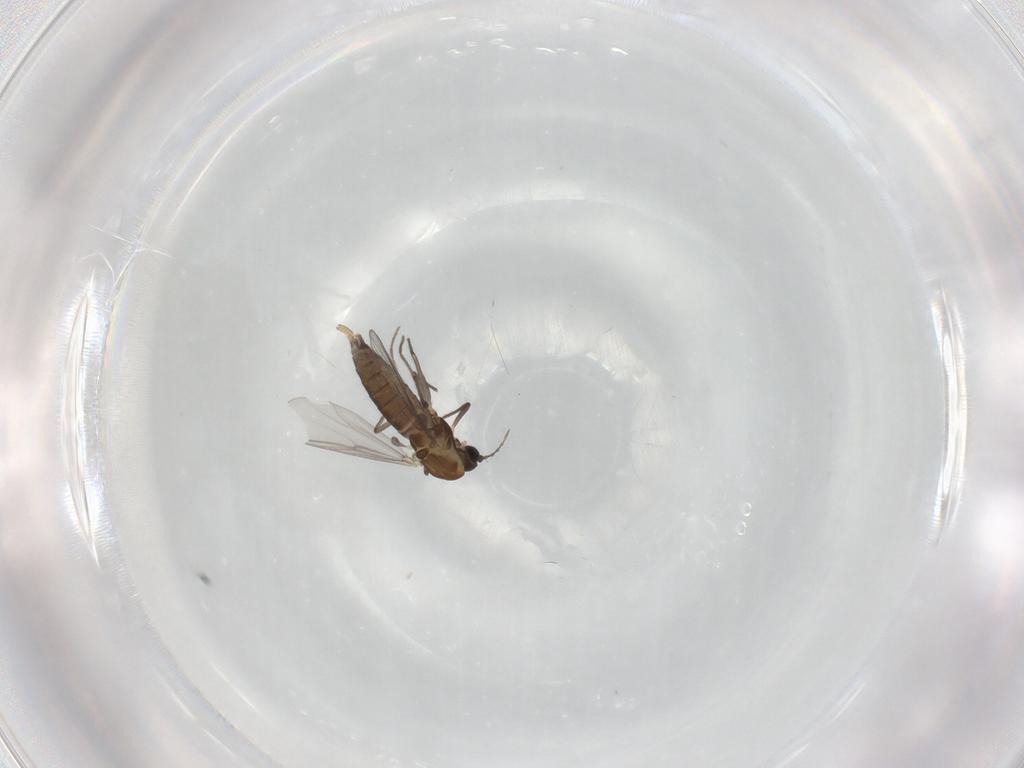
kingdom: Animalia
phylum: Arthropoda
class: Insecta
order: Diptera
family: Chironomidae
